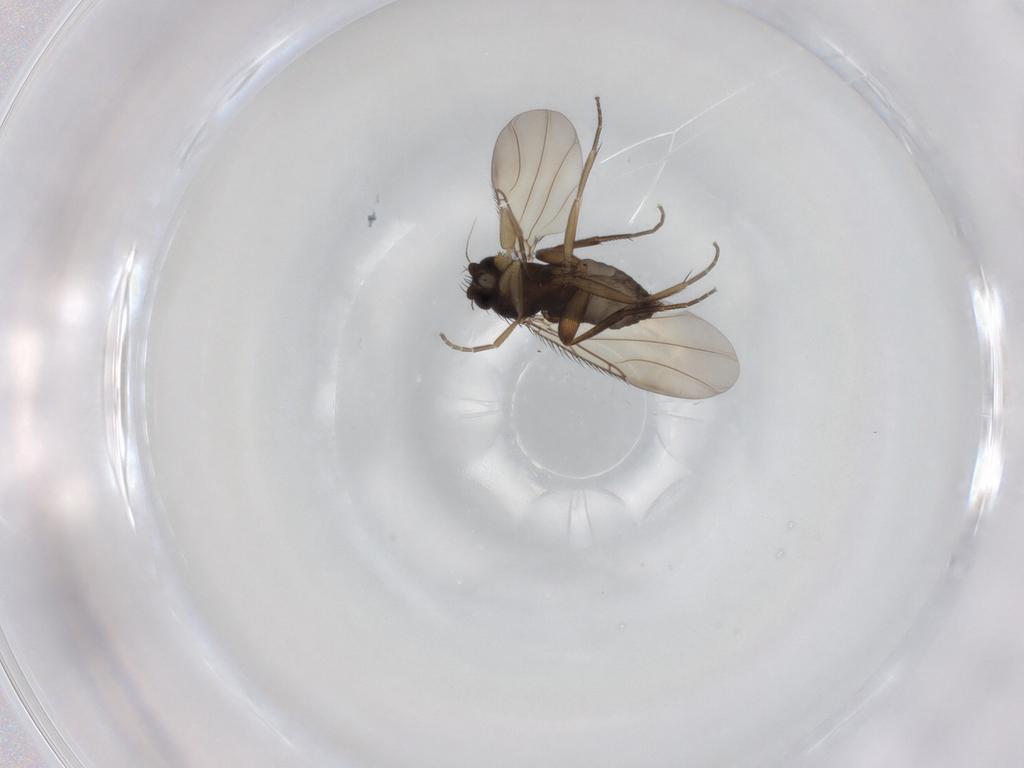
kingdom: Animalia
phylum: Arthropoda
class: Insecta
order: Diptera
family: Phoridae
